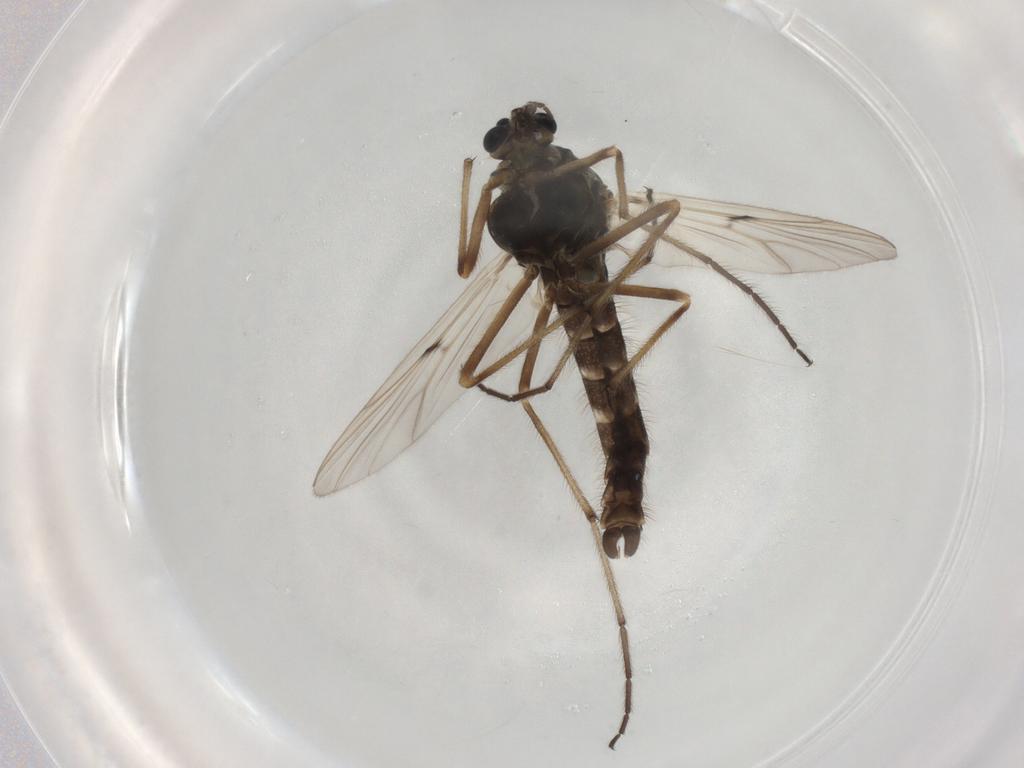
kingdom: Animalia
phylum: Arthropoda
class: Insecta
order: Diptera
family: Chironomidae
